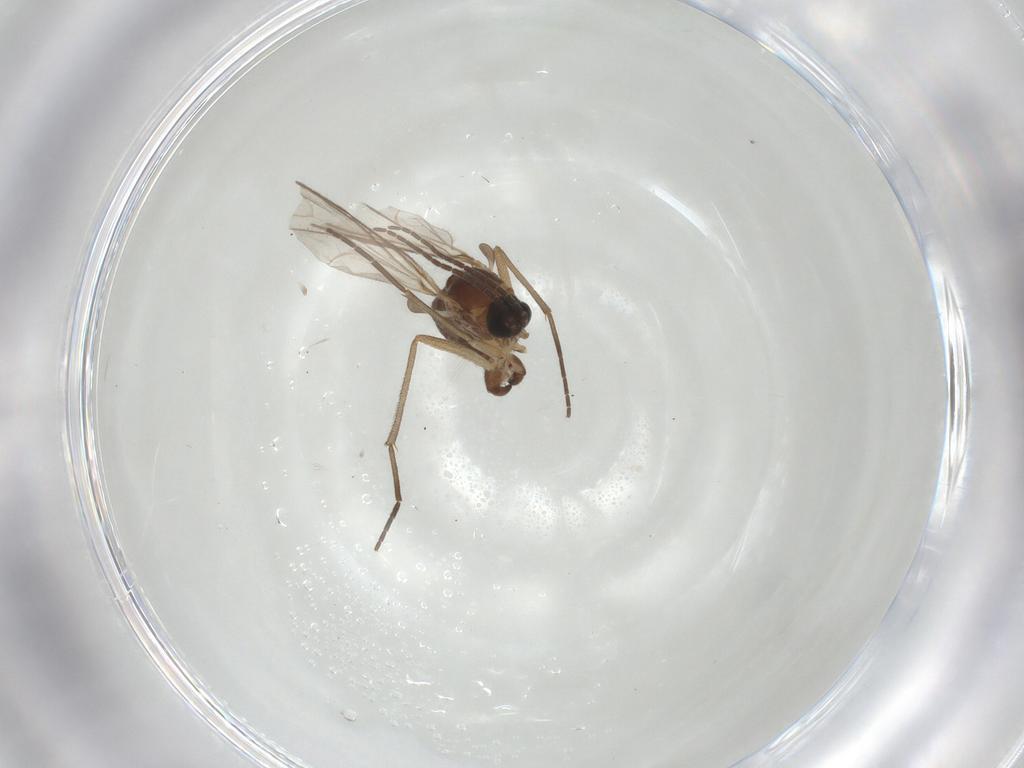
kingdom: Animalia
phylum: Arthropoda
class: Insecta
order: Diptera
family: Sciaridae
